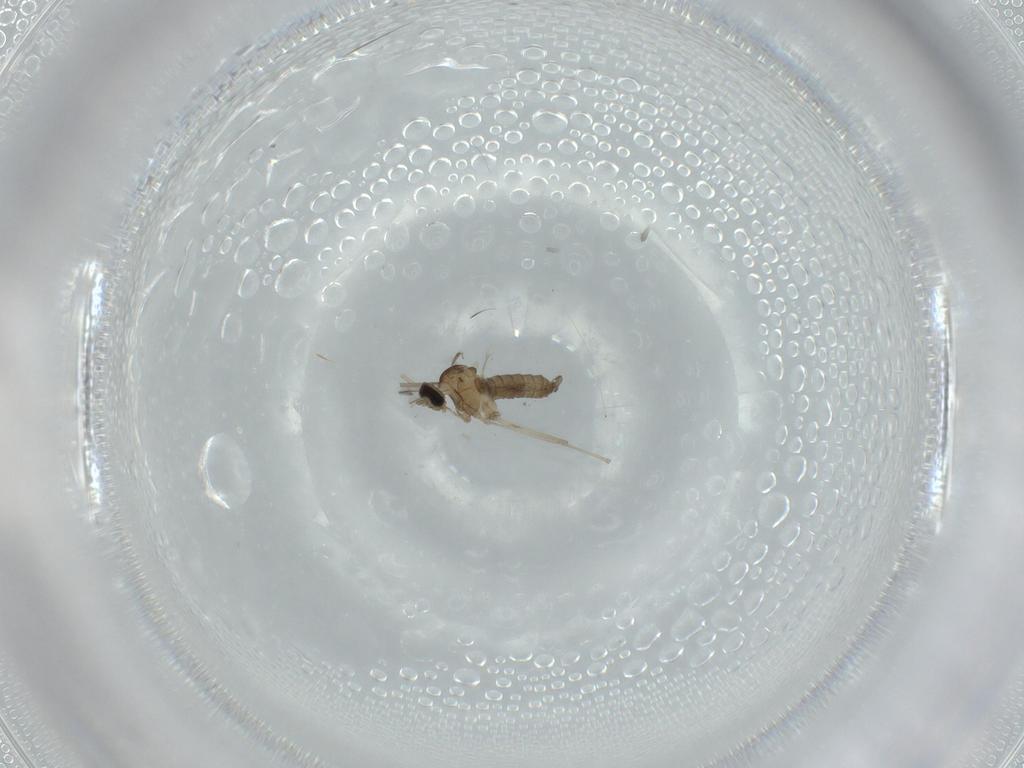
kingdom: Animalia
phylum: Arthropoda
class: Insecta
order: Diptera
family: Cecidomyiidae
